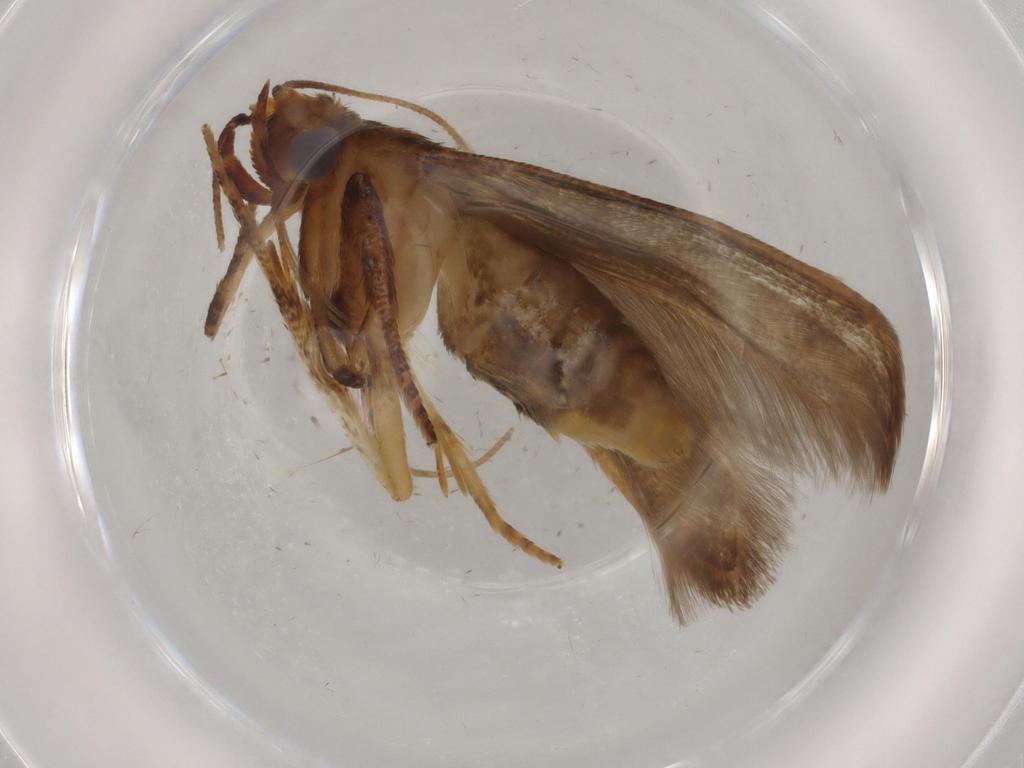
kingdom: Animalia
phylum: Arthropoda
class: Insecta
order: Lepidoptera
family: Blastobasidae
